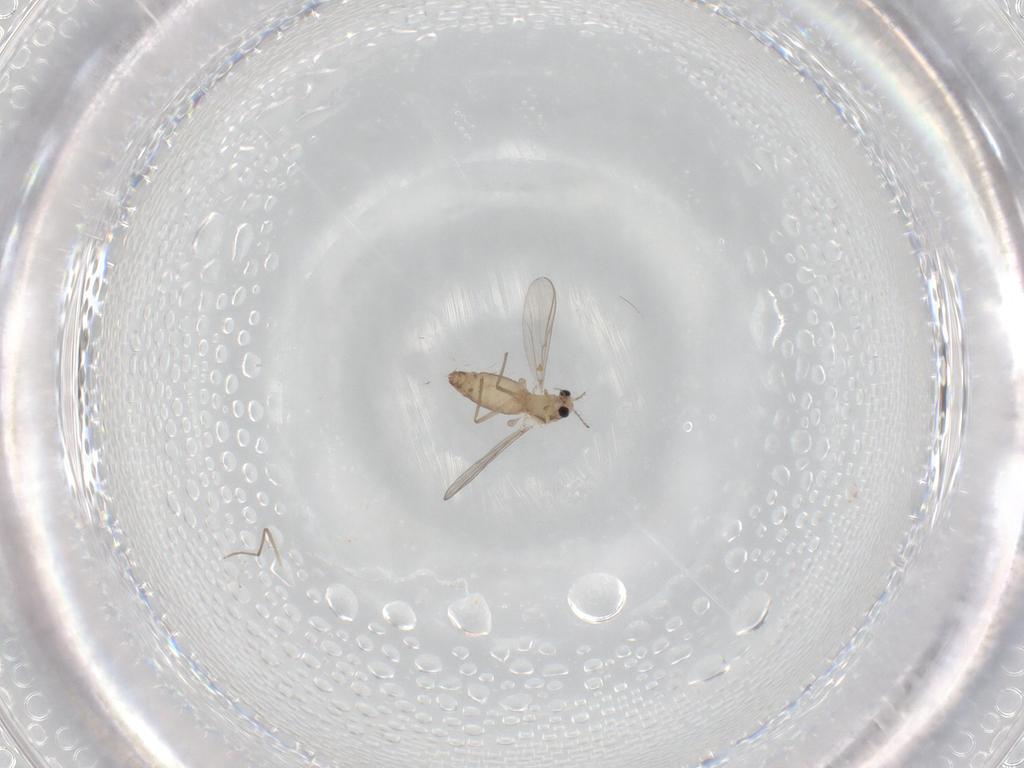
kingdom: Animalia
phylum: Arthropoda
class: Insecta
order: Diptera
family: Chironomidae
